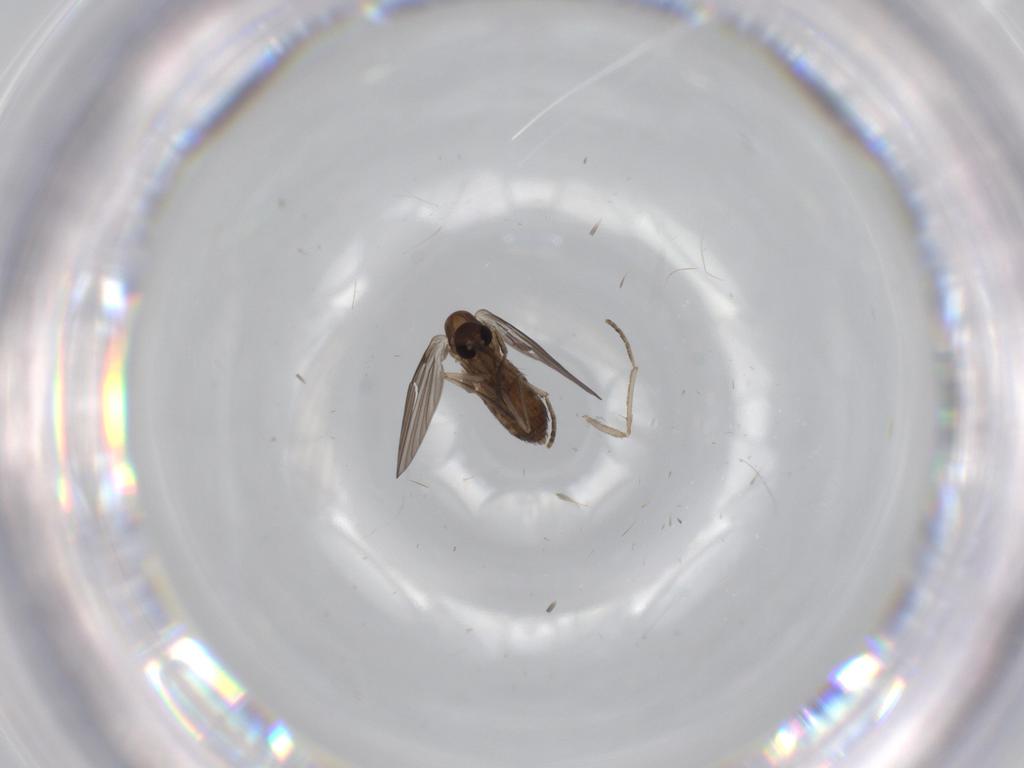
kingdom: Animalia
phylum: Arthropoda
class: Insecta
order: Diptera
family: Psychodidae
